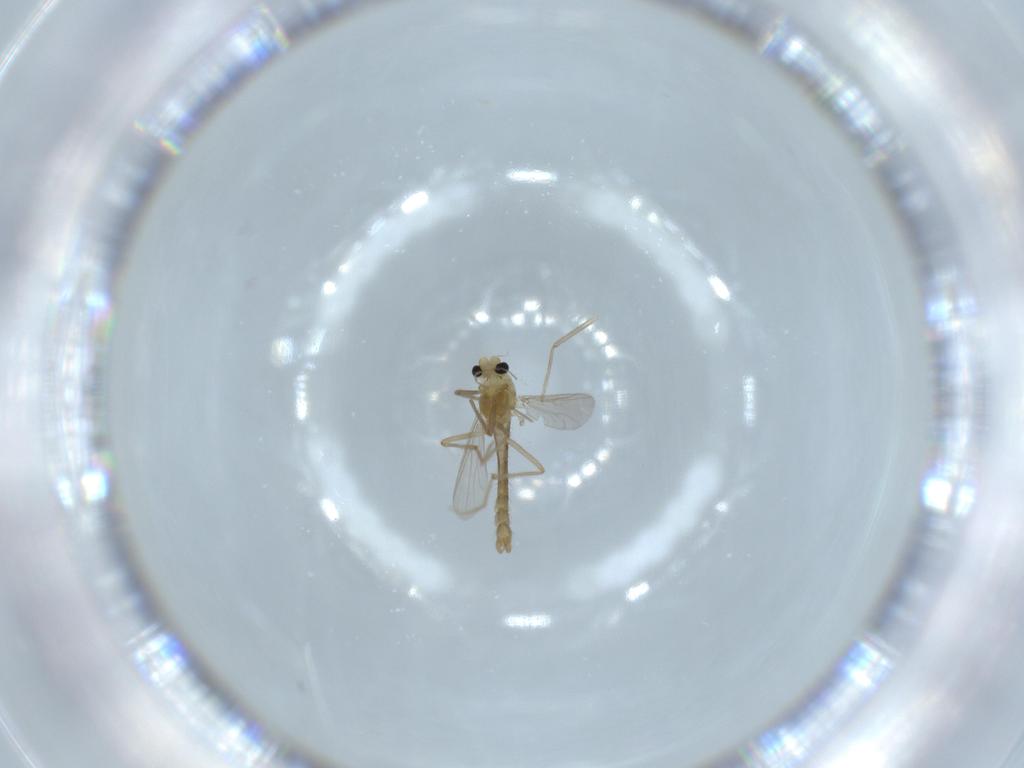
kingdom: Animalia
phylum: Arthropoda
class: Insecta
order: Diptera
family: Chironomidae
